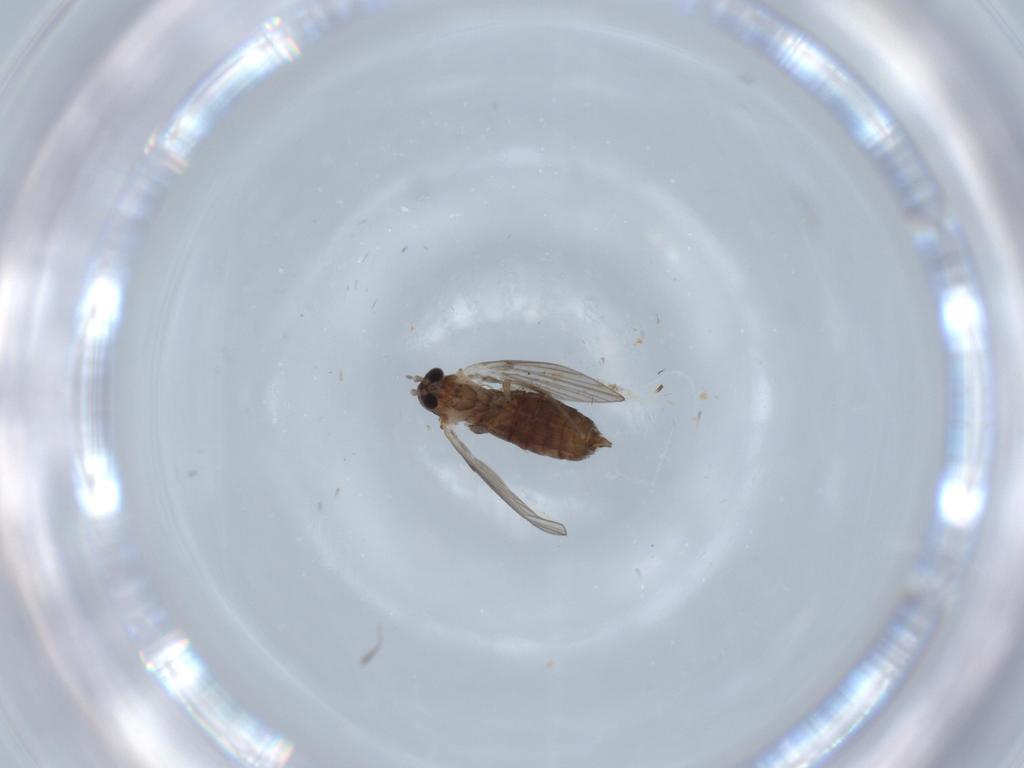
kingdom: Animalia
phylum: Arthropoda
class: Insecta
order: Diptera
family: Psychodidae
